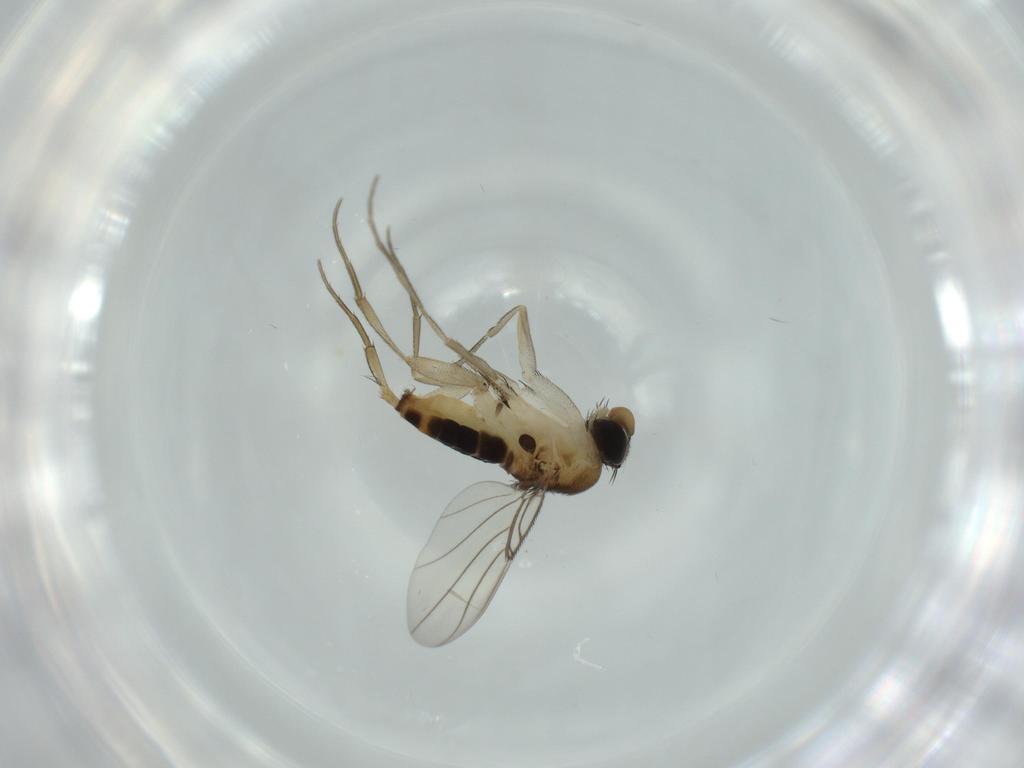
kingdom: Animalia
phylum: Arthropoda
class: Insecta
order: Diptera
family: Phoridae
